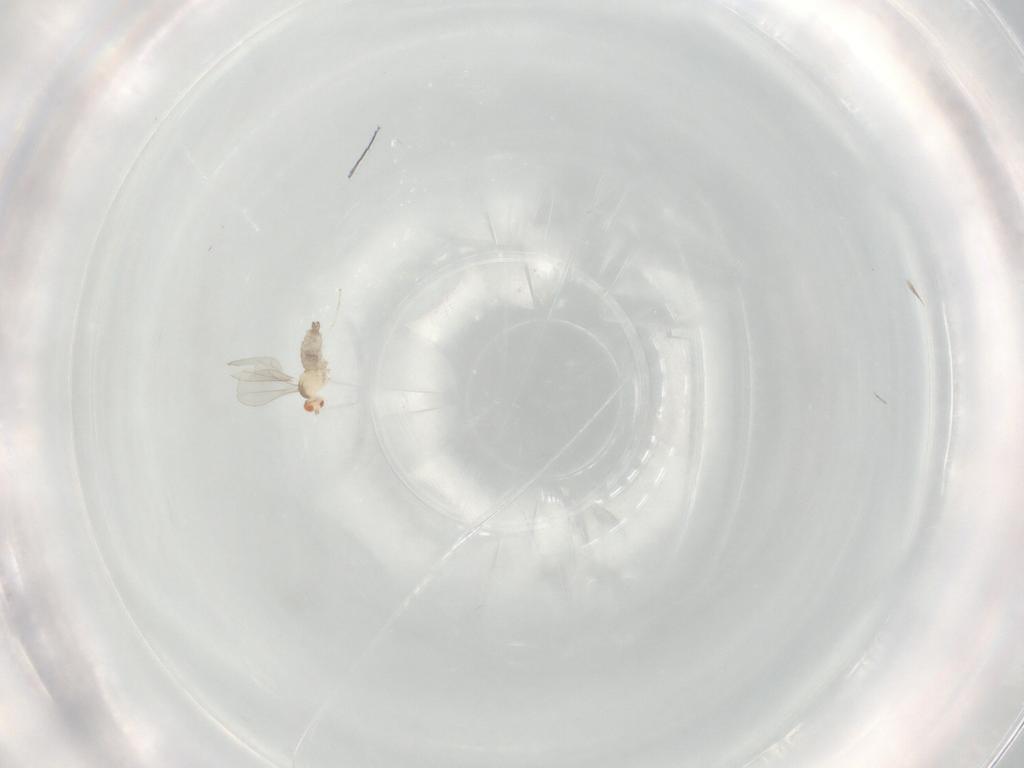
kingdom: Animalia
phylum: Arthropoda
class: Insecta
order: Diptera
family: Cecidomyiidae
